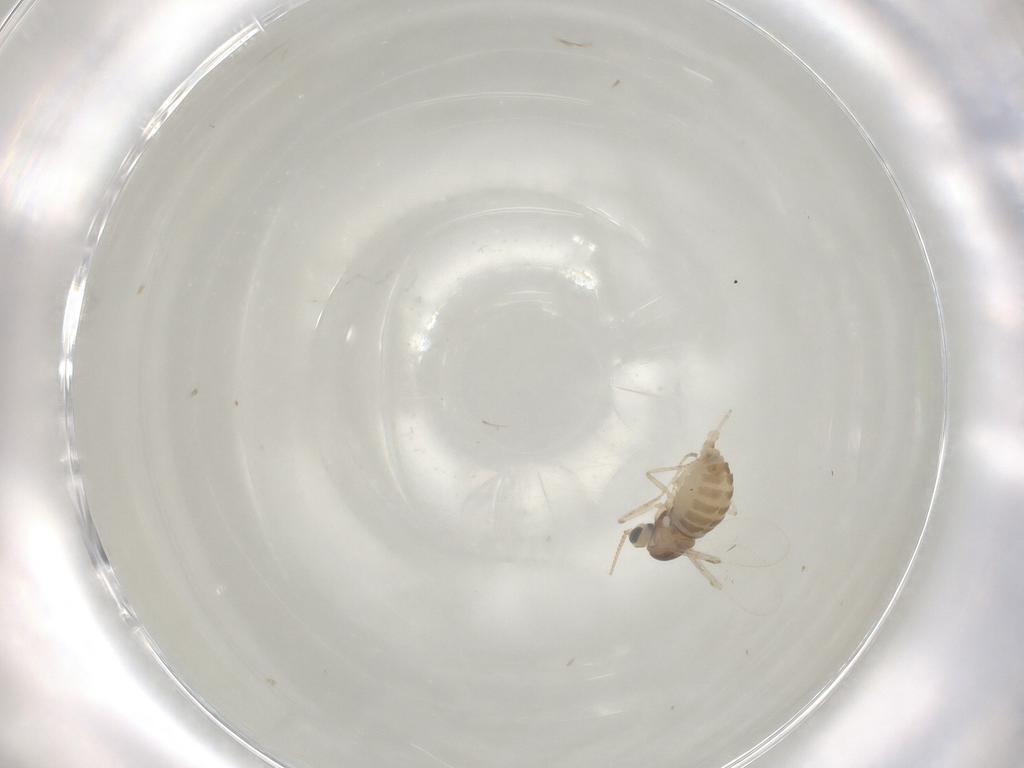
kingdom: Animalia
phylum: Arthropoda
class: Insecta
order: Diptera
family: Cecidomyiidae
